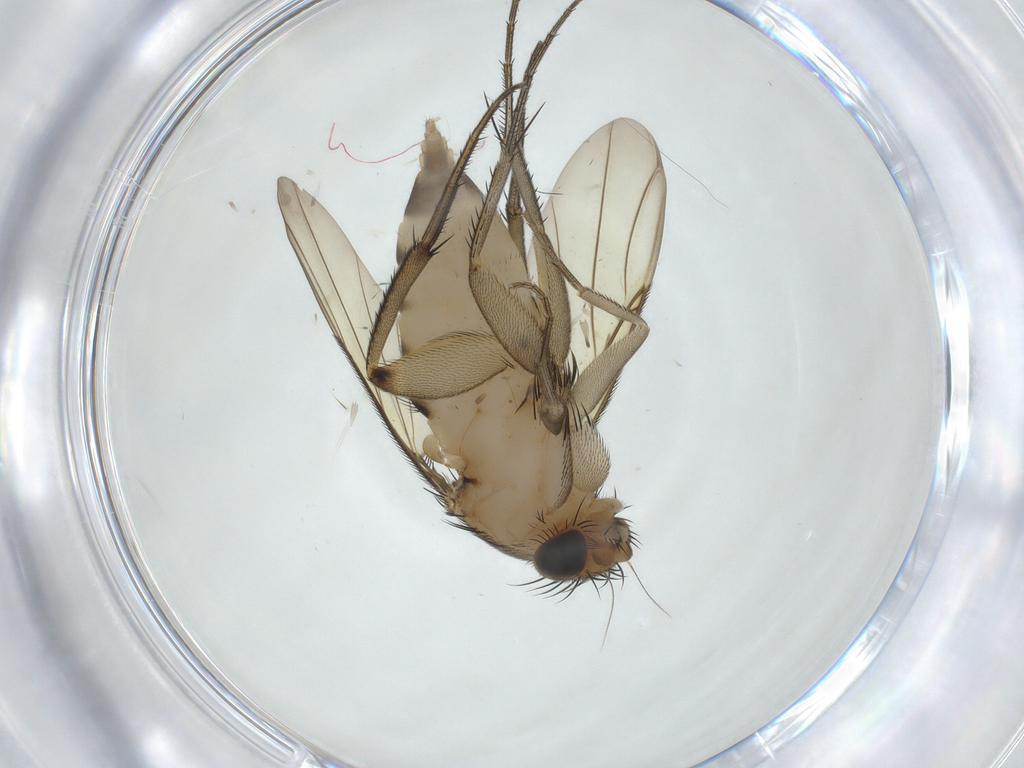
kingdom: Animalia
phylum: Arthropoda
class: Insecta
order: Diptera
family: Phoridae
